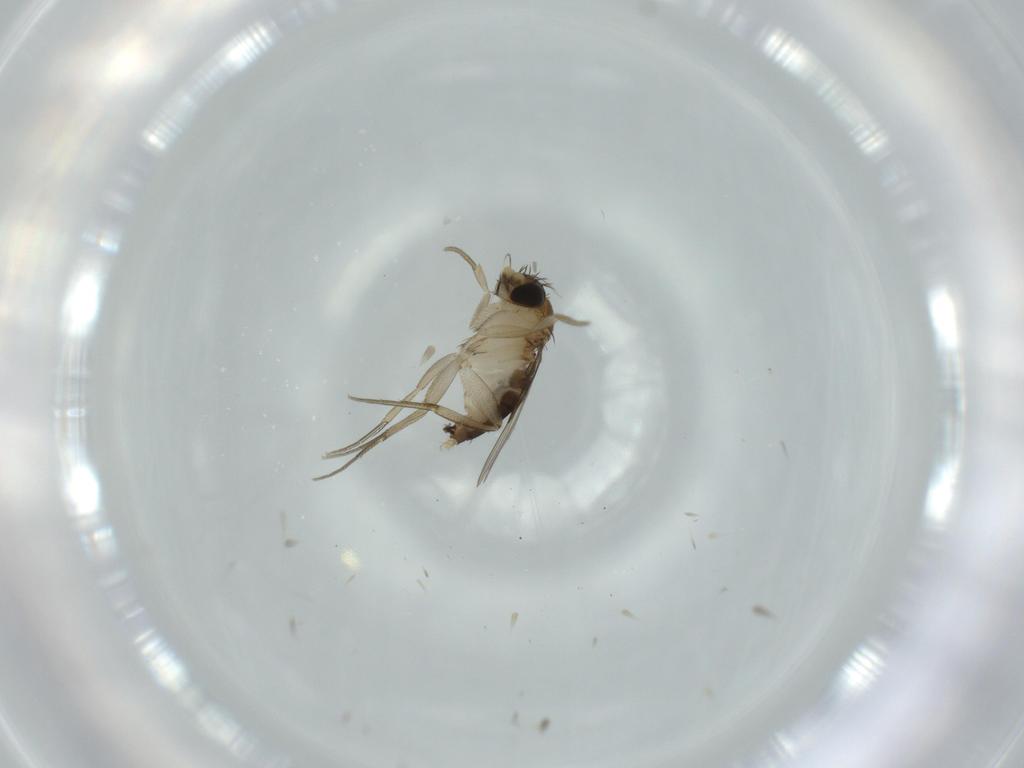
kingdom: Animalia
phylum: Arthropoda
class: Insecta
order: Diptera
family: Phoridae
